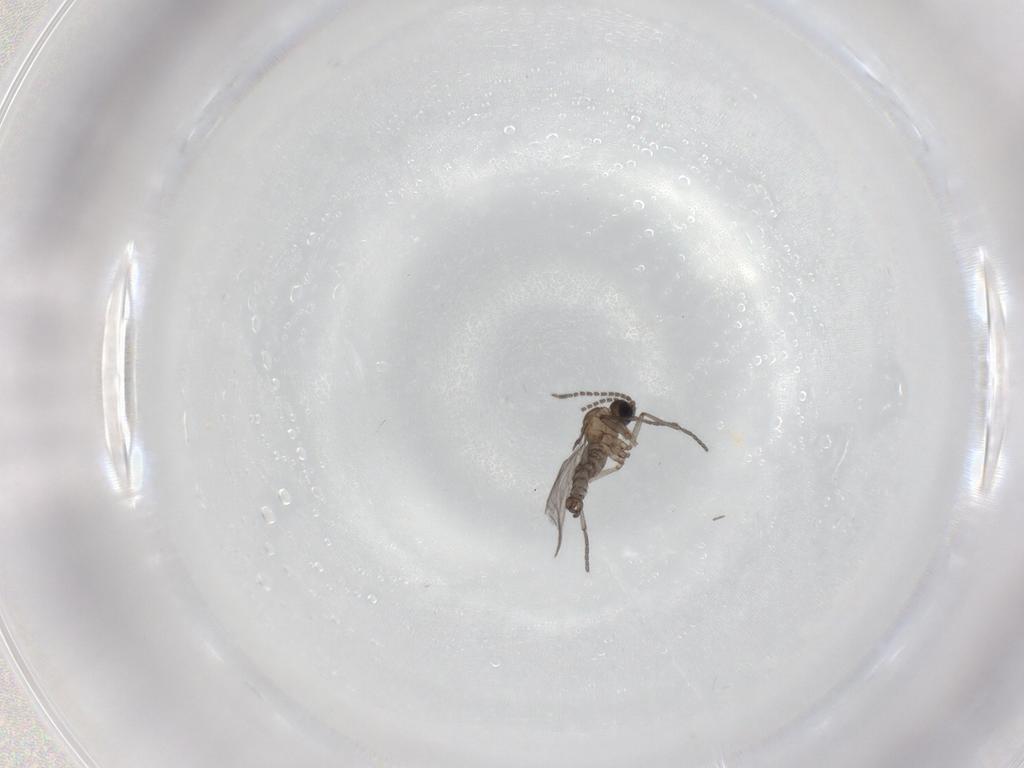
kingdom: Animalia
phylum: Arthropoda
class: Insecta
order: Diptera
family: Sciaridae
